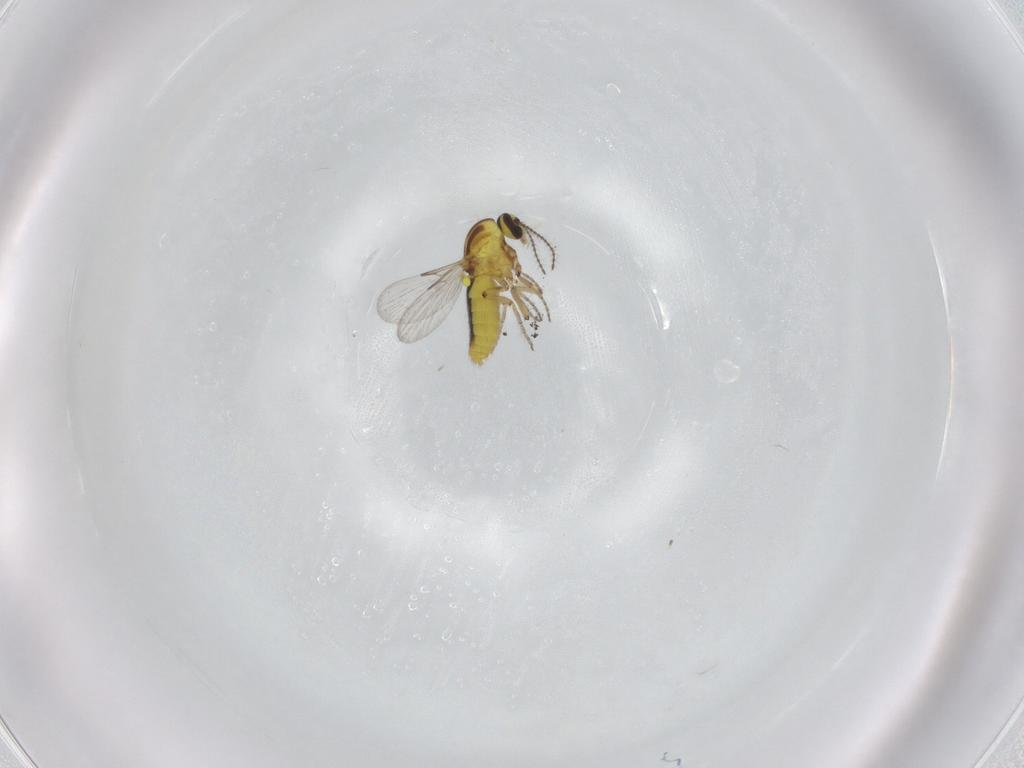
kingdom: Animalia
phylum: Arthropoda
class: Insecta
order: Diptera
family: Ceratopogonidae
